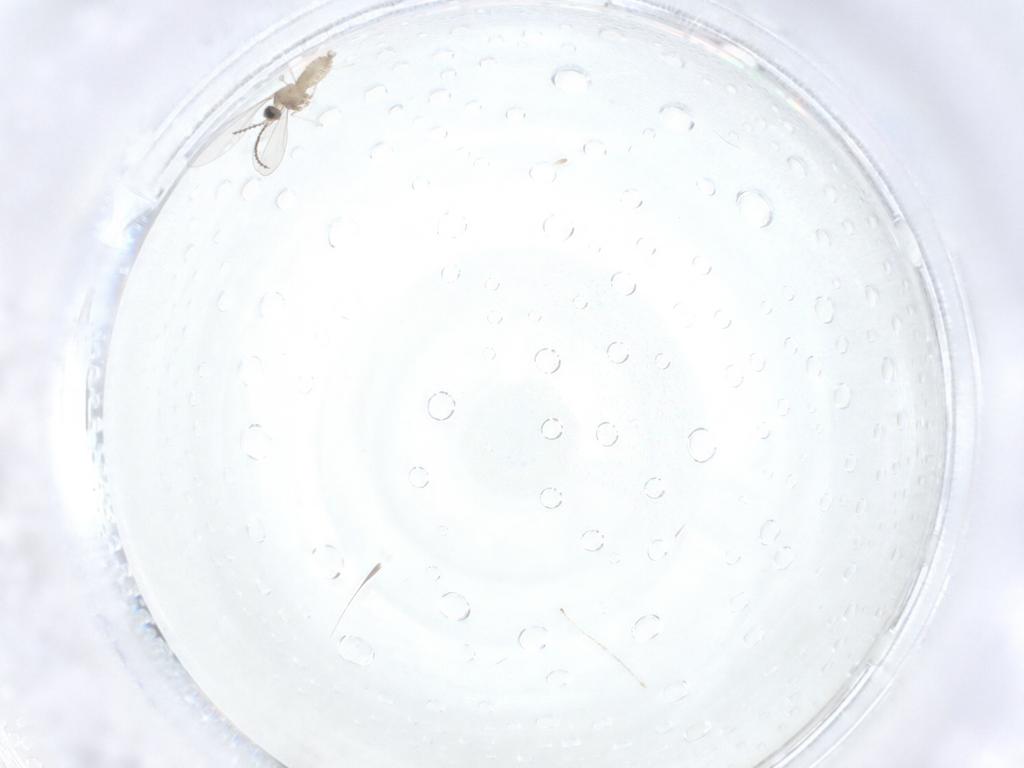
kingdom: Animalia
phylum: Arthropoda
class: Insecta
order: Diptera
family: Cecidomyiidae
